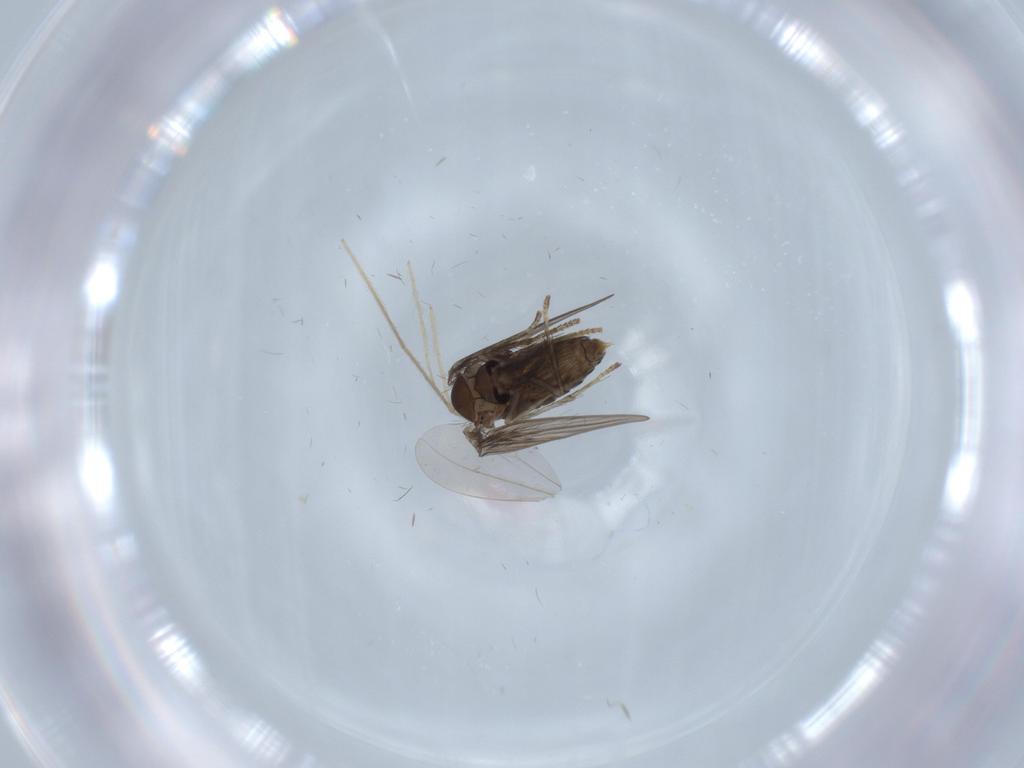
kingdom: Animalia
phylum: Arthropoda
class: Insecta
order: Diptera
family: Psychodidae
